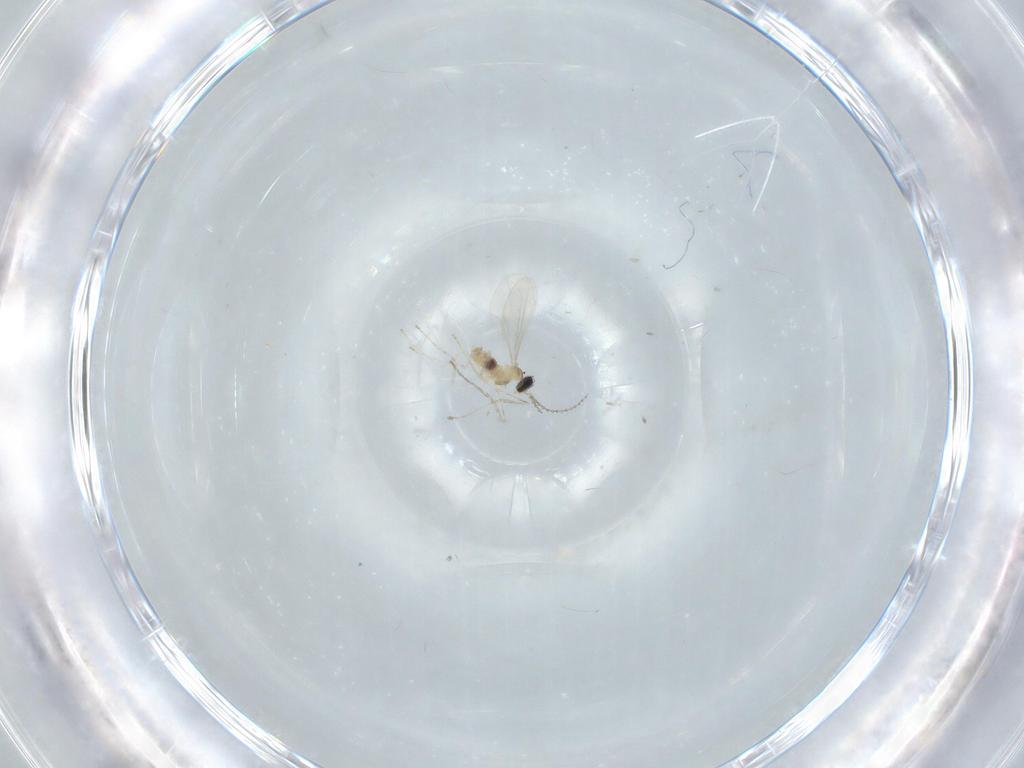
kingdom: Animalia
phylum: Arthropoda
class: Insecta
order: Diptera
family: Cecidomyiidae
